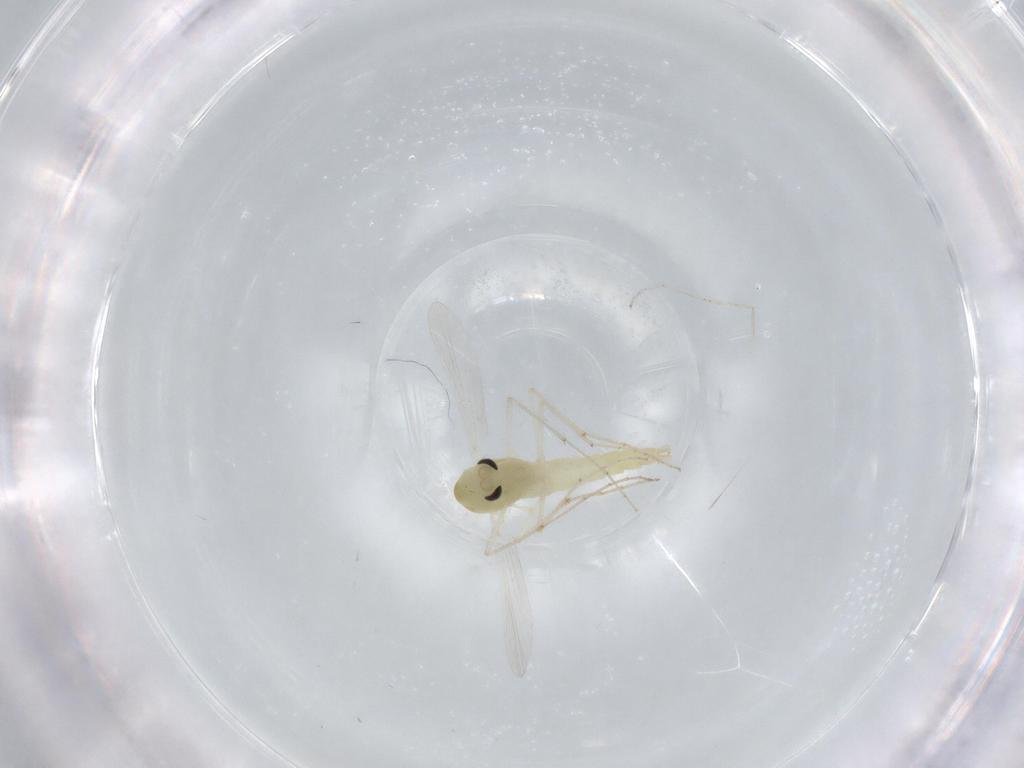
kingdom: Animalia
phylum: Arthropoda
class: Insecta
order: Diptera
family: Chironomidae
